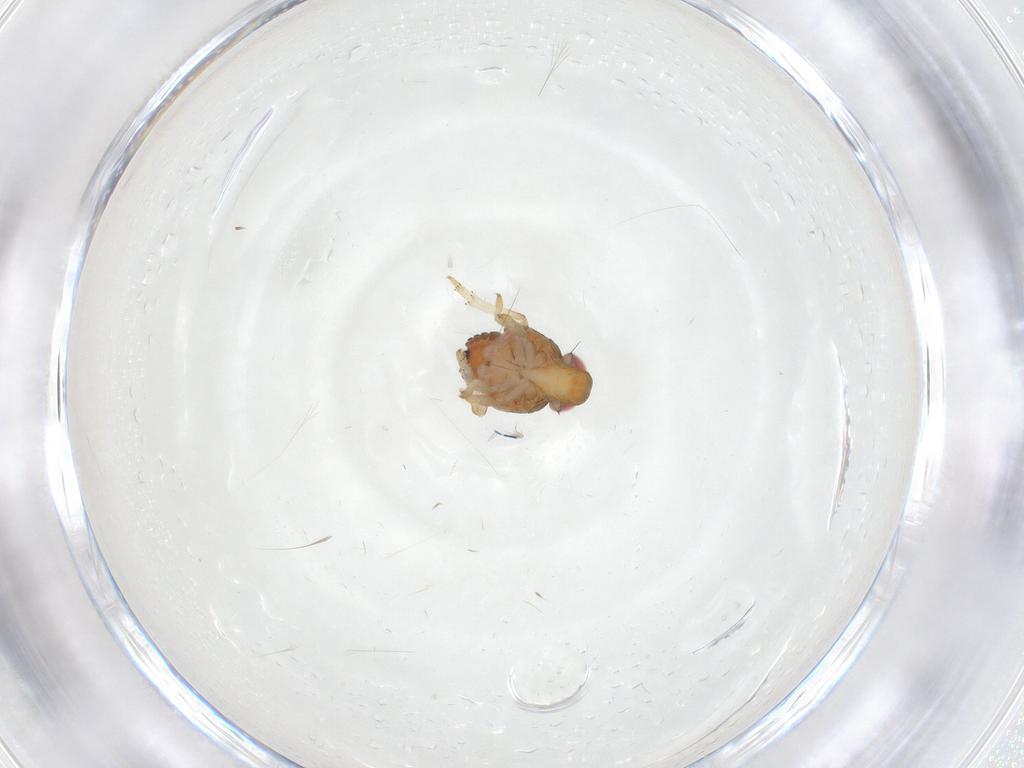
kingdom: Animalia
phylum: Arthropoda
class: Insecta
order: Hemiptera
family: Issidae
